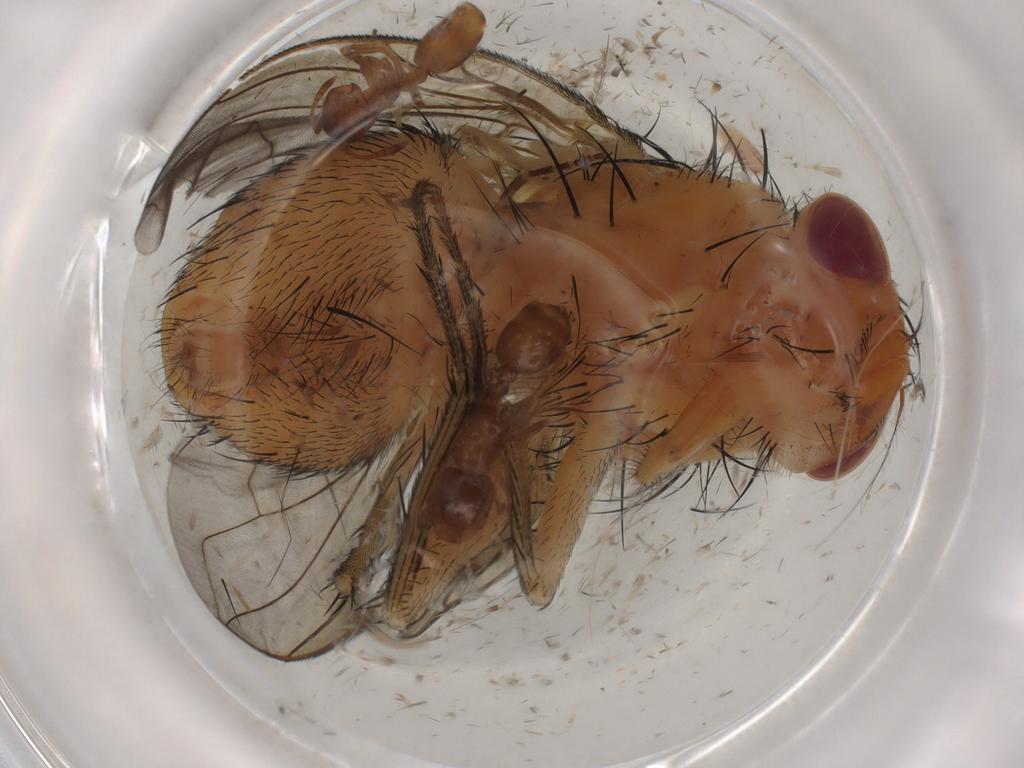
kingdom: Animalia
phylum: Arthropoda
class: Insecta
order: Diptera
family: Calliphoridae
